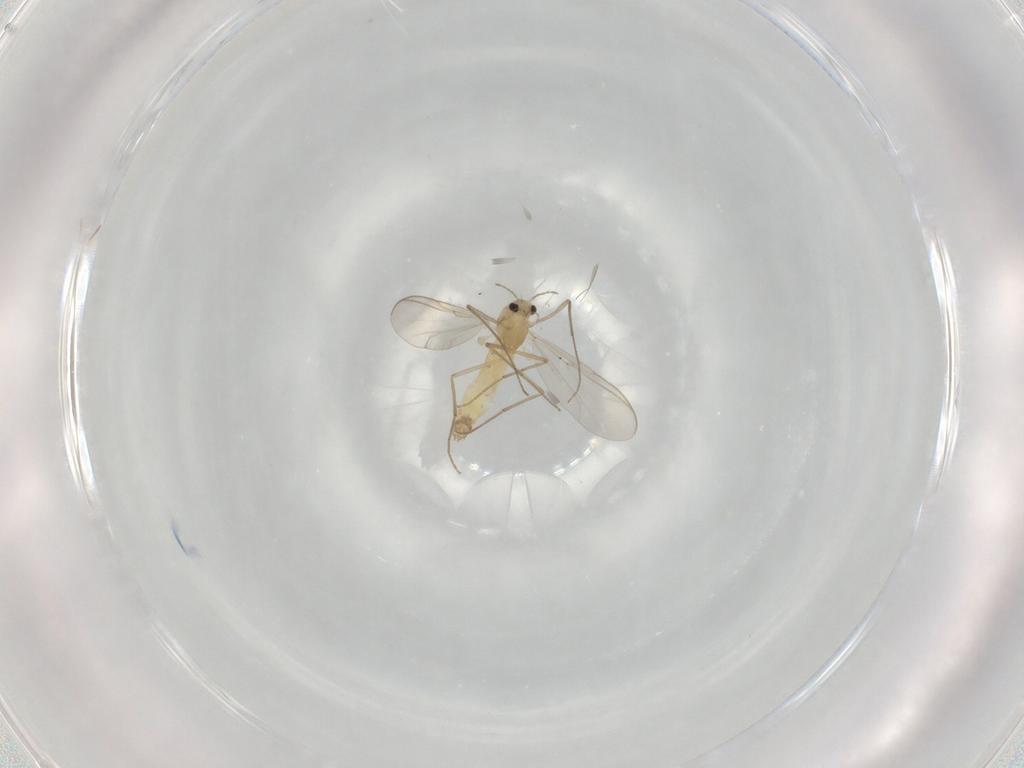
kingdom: Animalia
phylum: Arthropoda
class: Insecta
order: Diptera
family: Chironomidae
